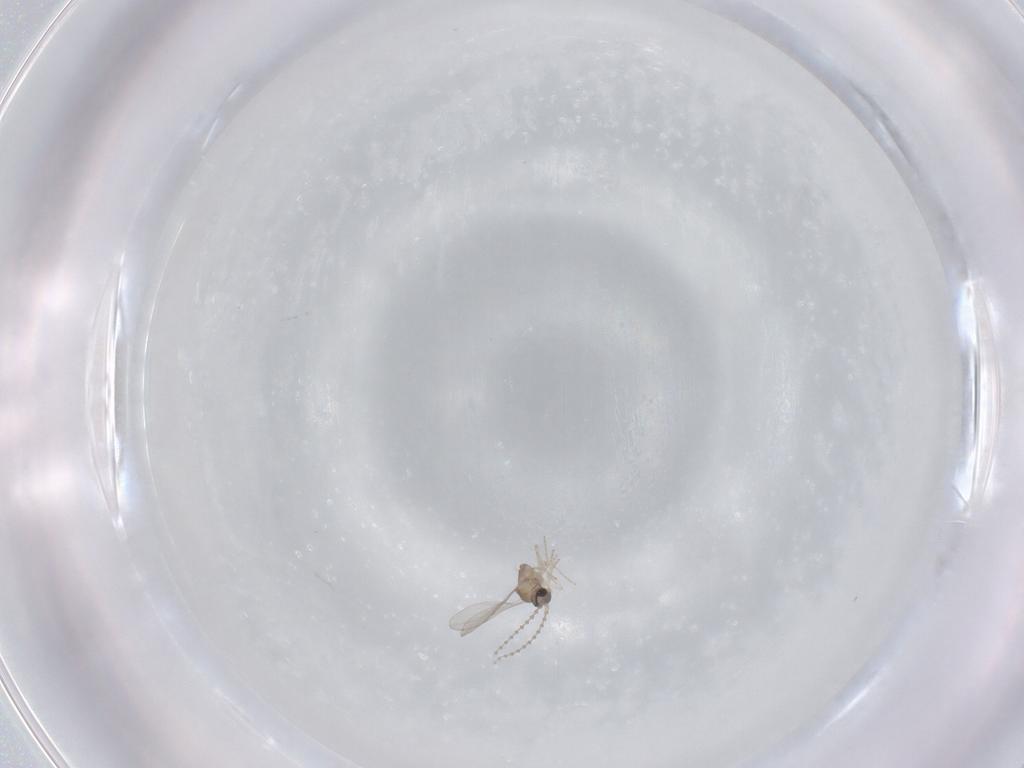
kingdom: Animalia
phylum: Arthropoda
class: Insecta
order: Diptera
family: Cecidomyiidae
